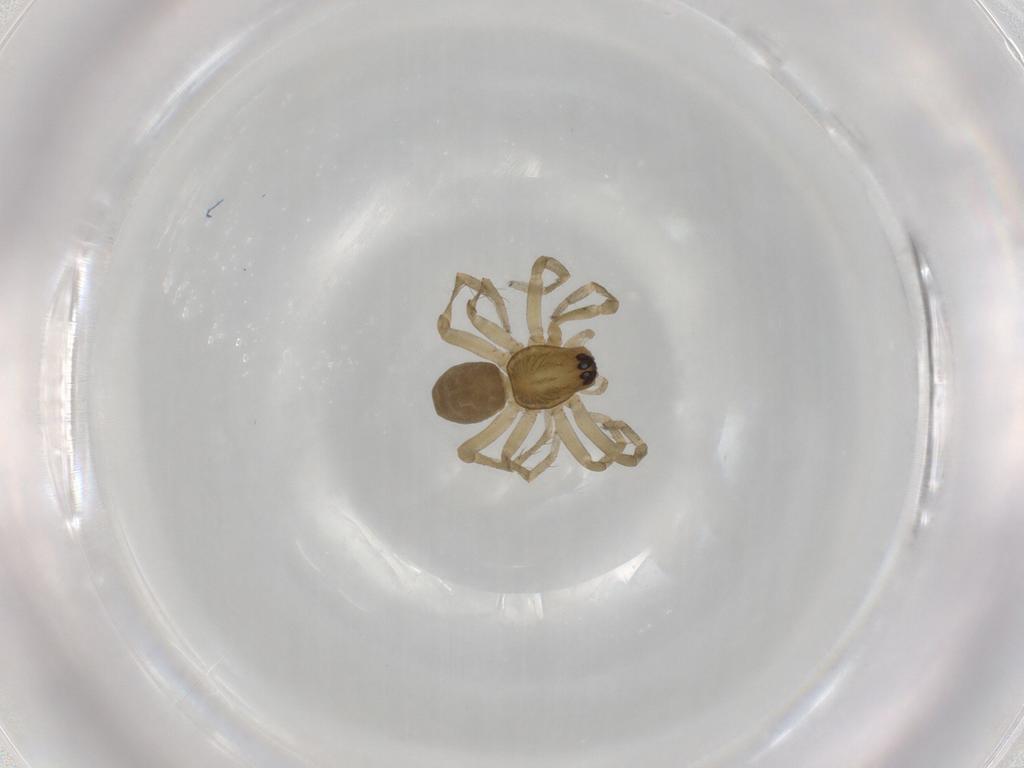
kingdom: Animalia
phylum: Arthropoda
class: Arachnida
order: Araneae
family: Anyphaenidae
